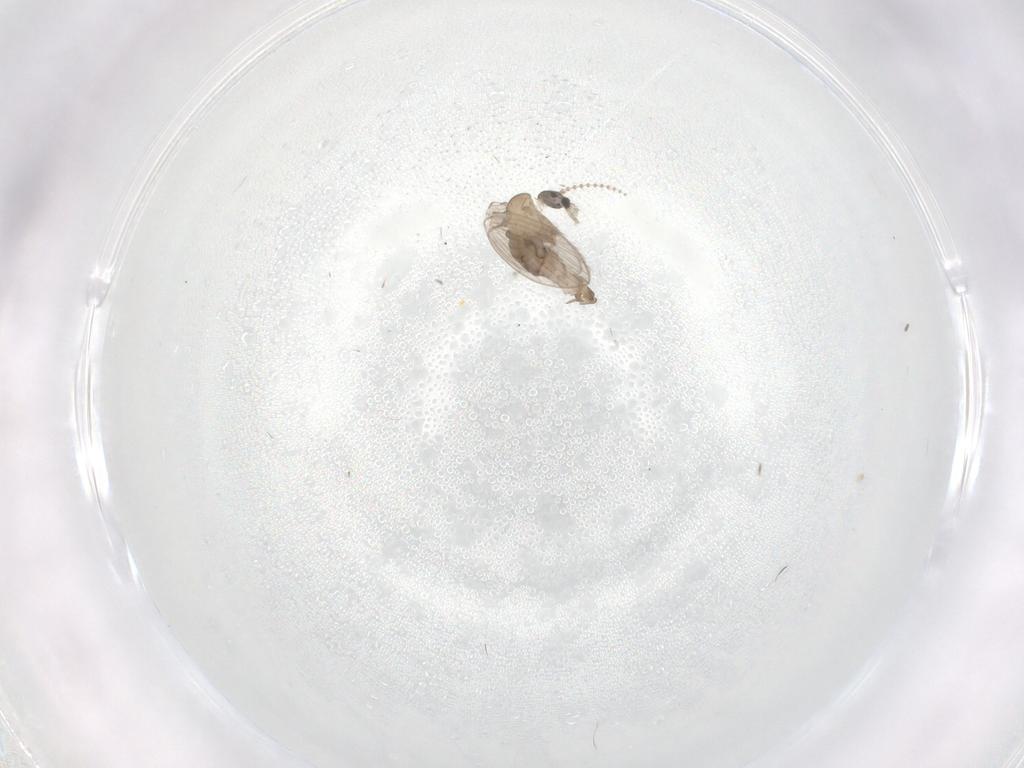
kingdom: Animalia
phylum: Arthropoda
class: Insecta
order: Diptera
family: Psychodidae
